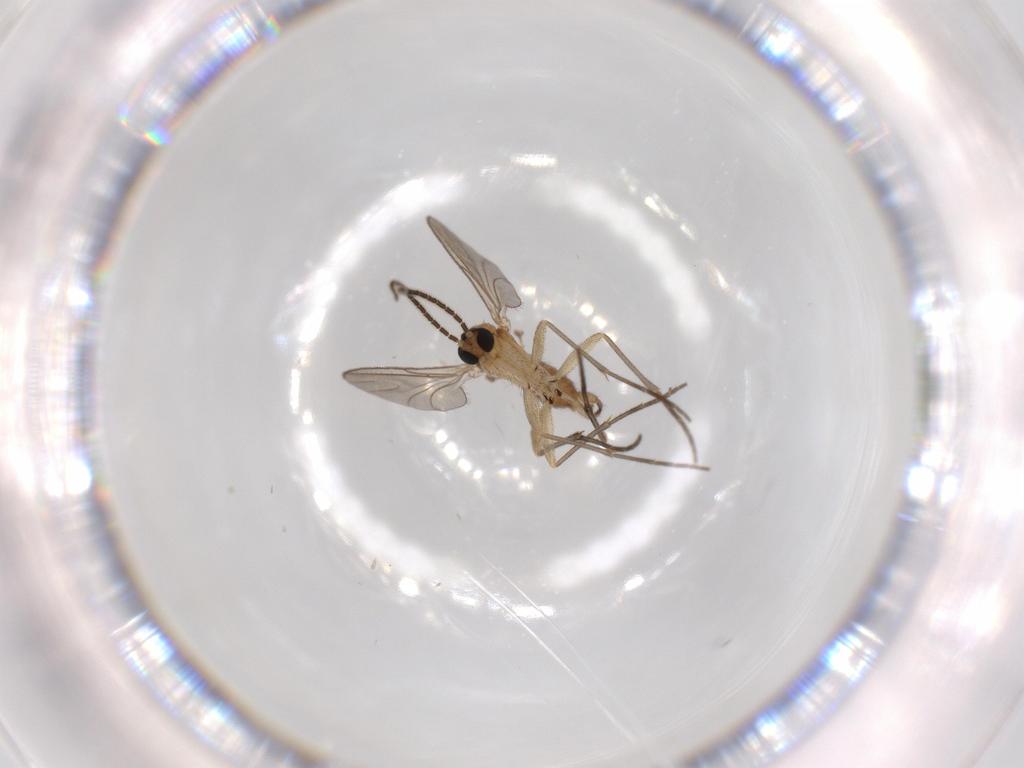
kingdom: Animalia
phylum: Arthropoda
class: Insecta
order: Diptera
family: Sciaridae
